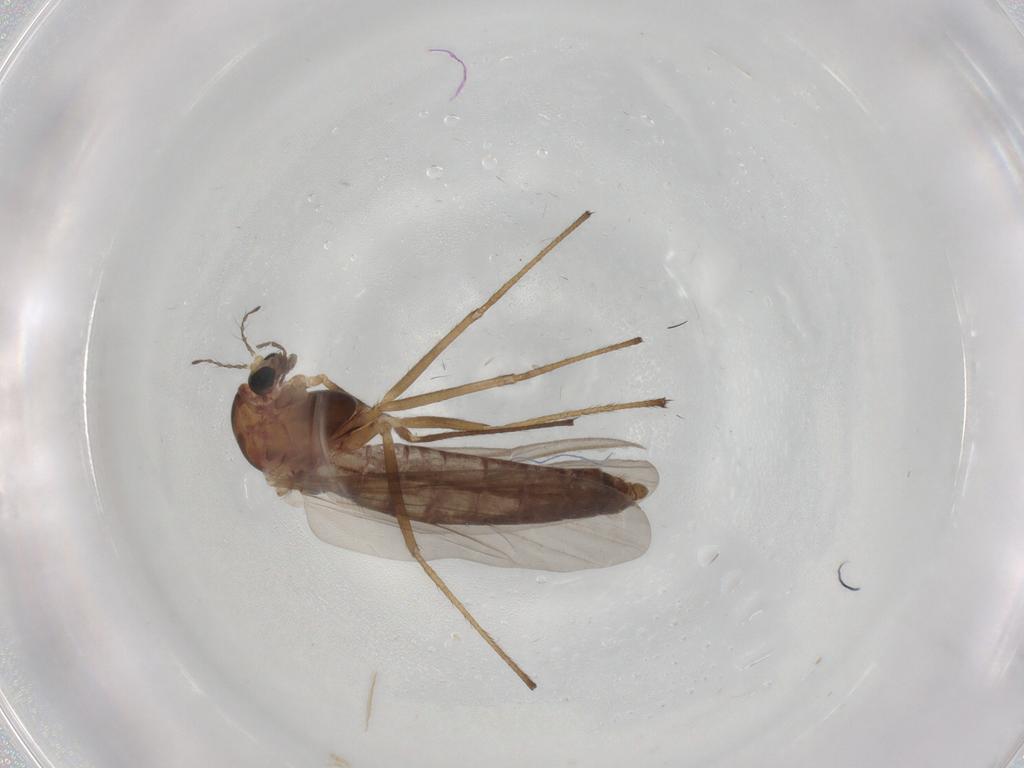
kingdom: Animalia
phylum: Arthropoda
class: Insecta
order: Diptera
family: Chironomidae
